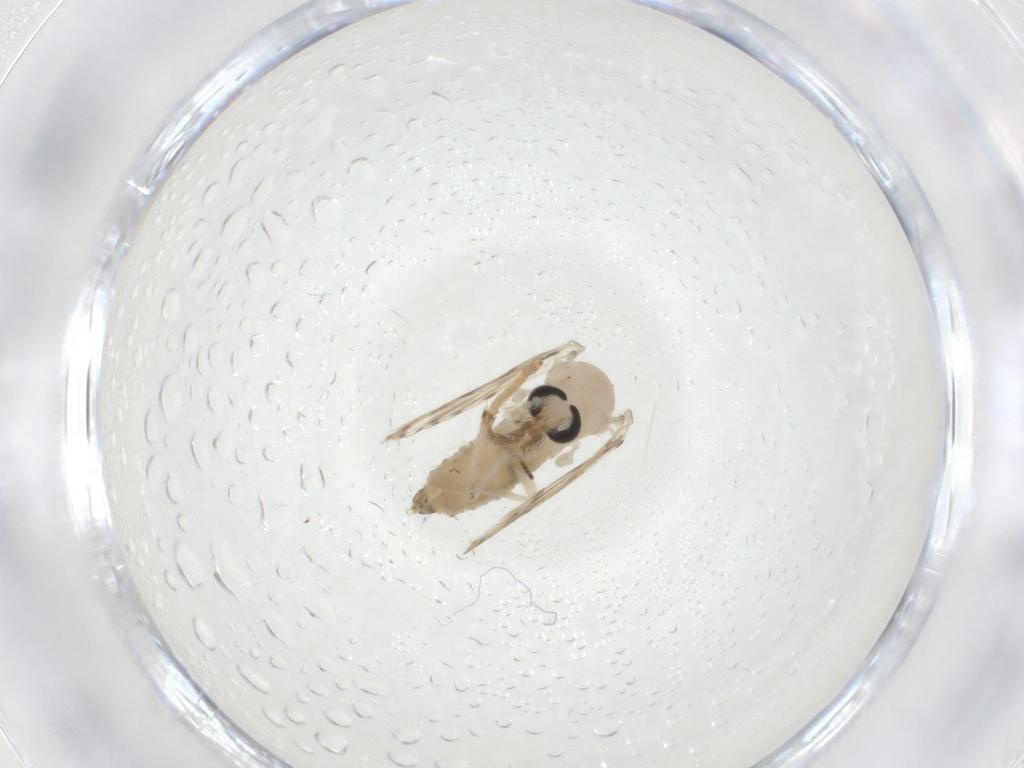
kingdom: Animalia
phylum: Arthropoda
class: Insecta
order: Diptera
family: Psychodidae
